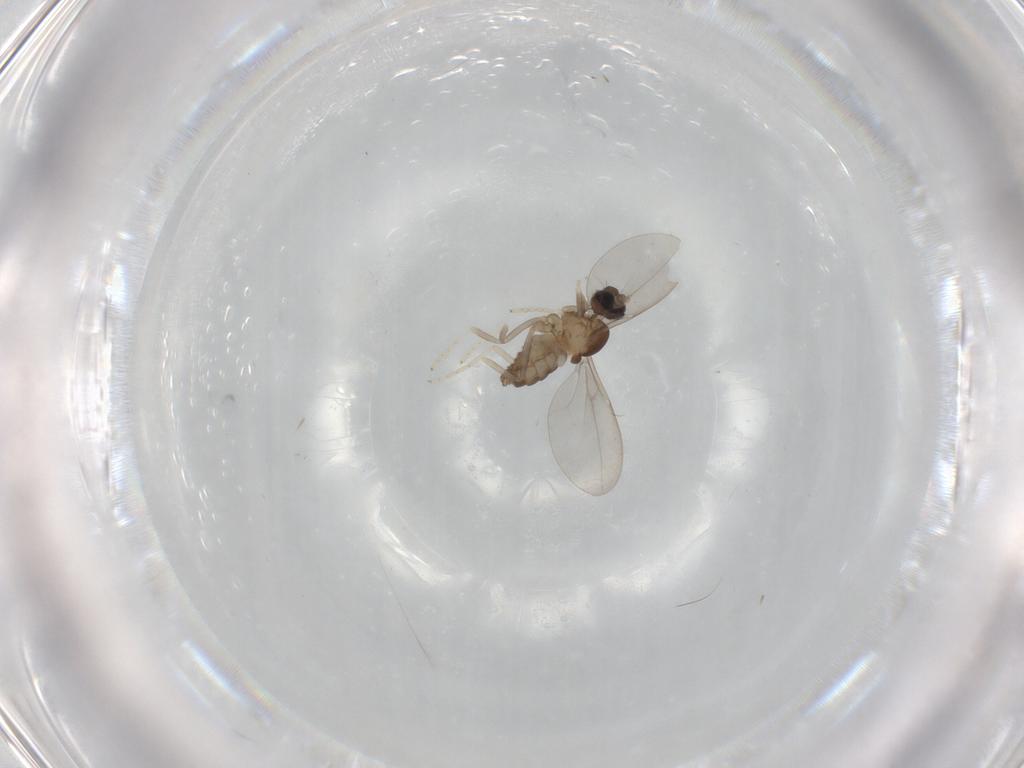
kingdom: Animalia
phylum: Arthropoda
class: Insecta
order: Diptera
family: Cecidomyiidae
